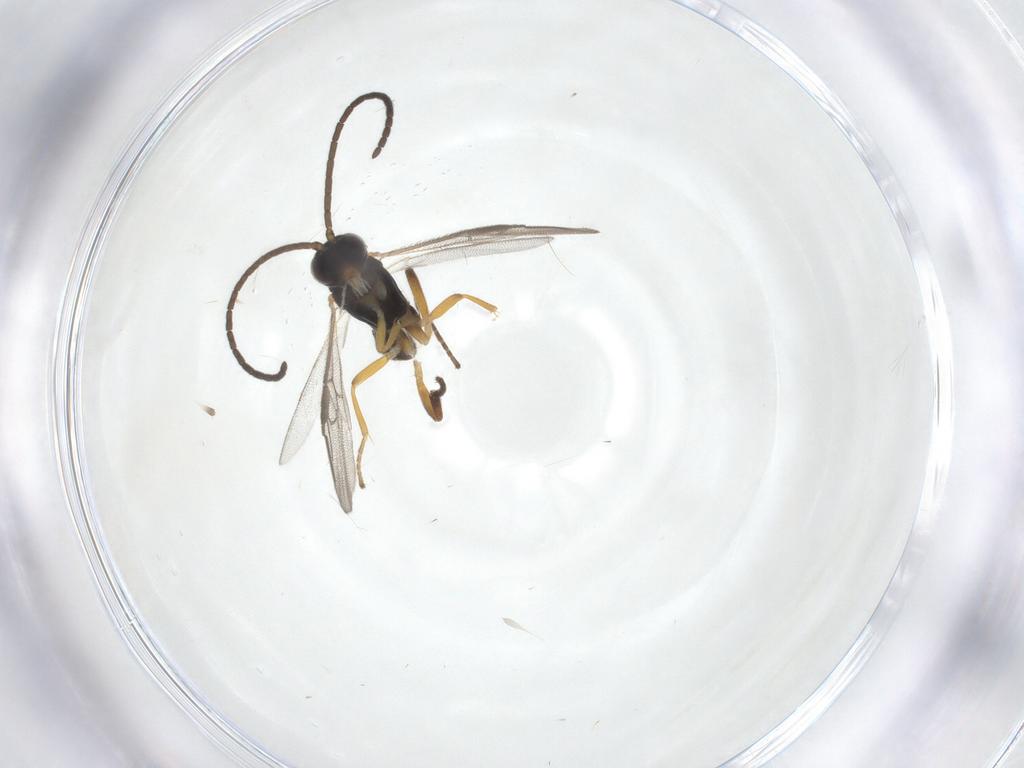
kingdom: Animalia
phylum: Arthropoda
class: Insecta
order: Hymenoptera
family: Braconidae
